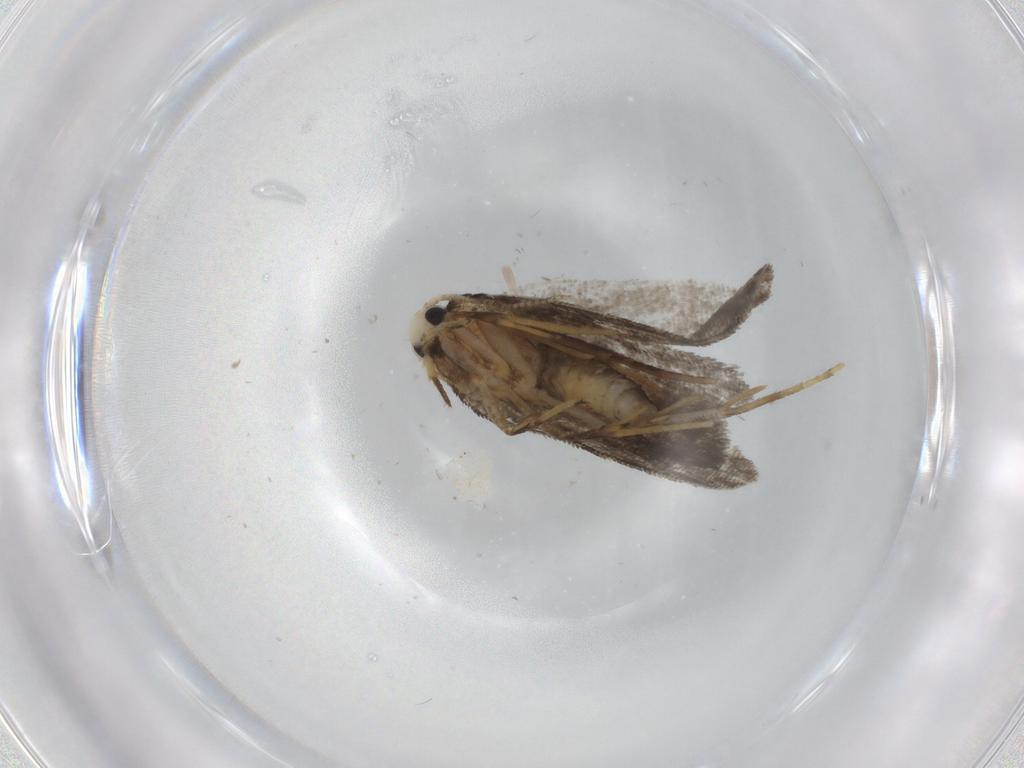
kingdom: Animalia
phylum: Arthropoda
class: Insecta
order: Lepidoptera
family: Psychidae
